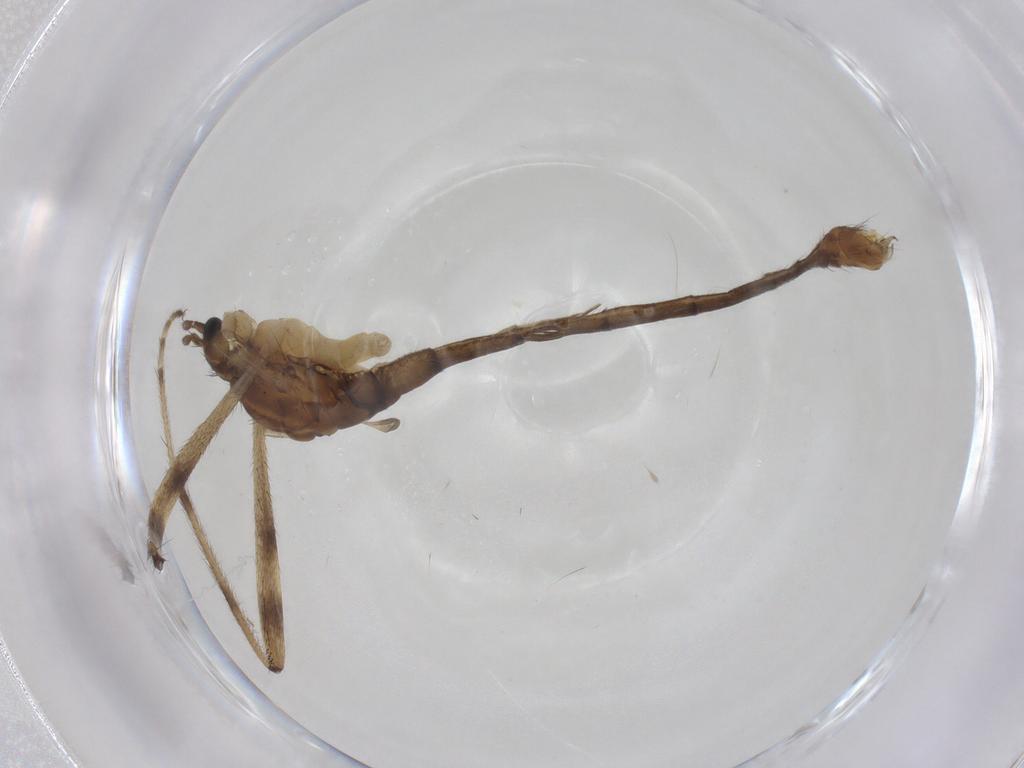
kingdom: Animalia
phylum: Arthropoda
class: Insecta
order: Diptera
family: Limoniidae
